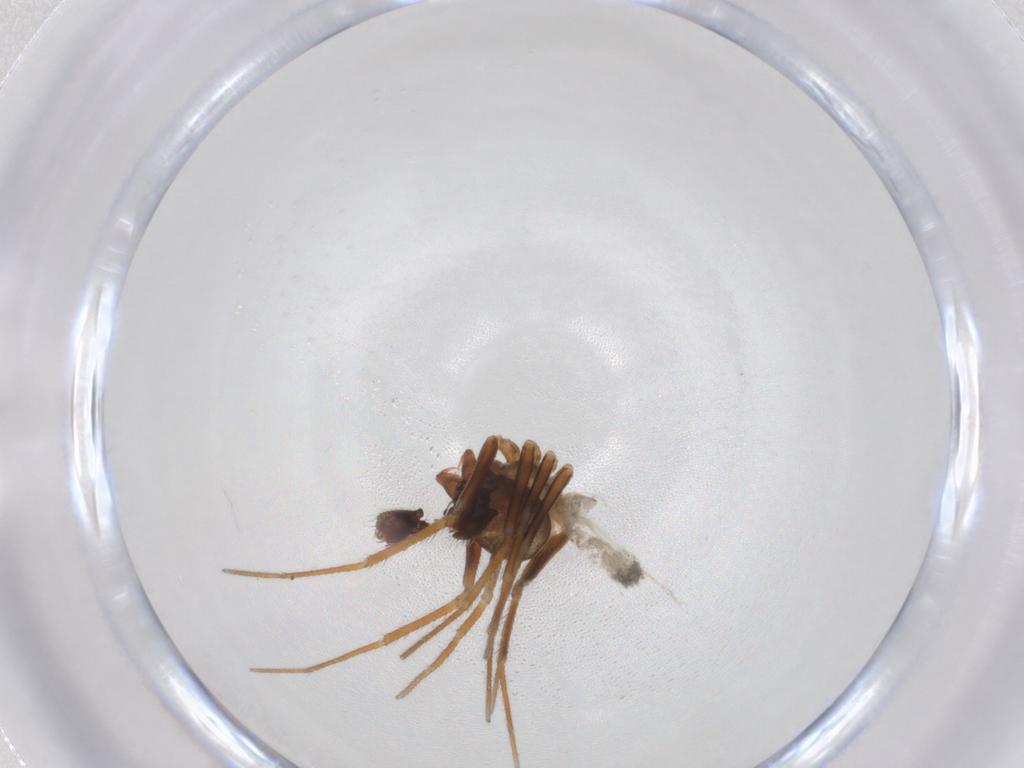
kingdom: Animalia
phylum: Arthropoda
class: Arachnida
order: Araneae
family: Linyphiidae
